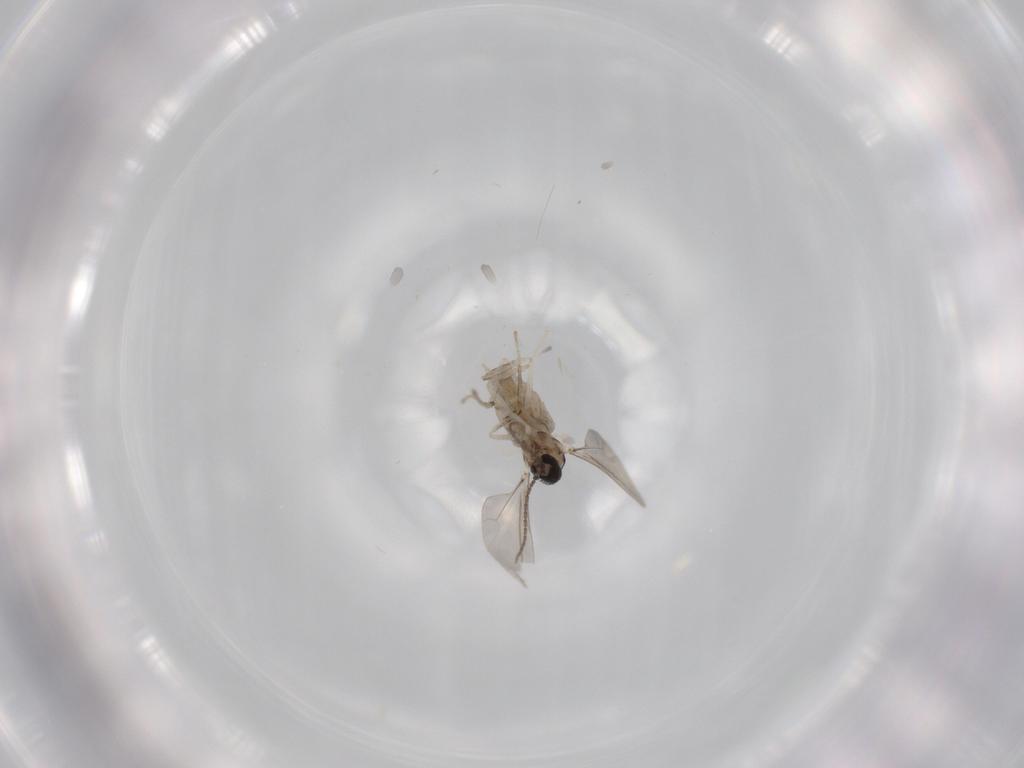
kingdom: Animalia
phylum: Arthropoda
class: Insecta
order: Diptera
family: Cecidomyiidae
